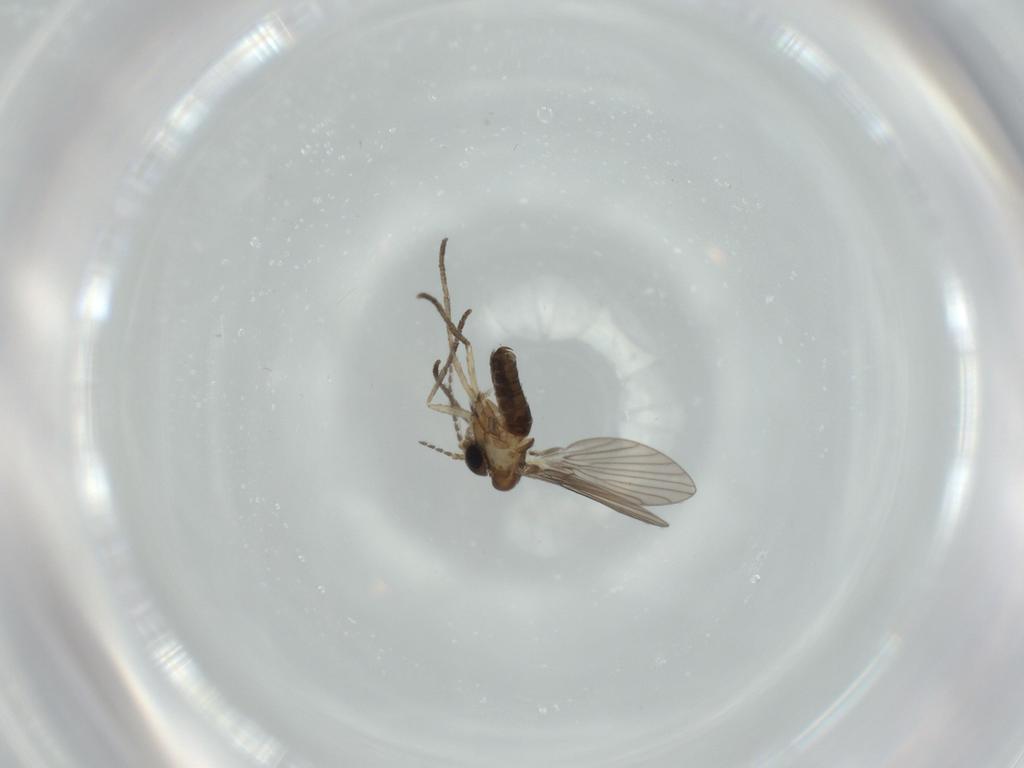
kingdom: Animalia
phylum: Arthropoda
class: Insecta
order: Diptera
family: Psychodidae
